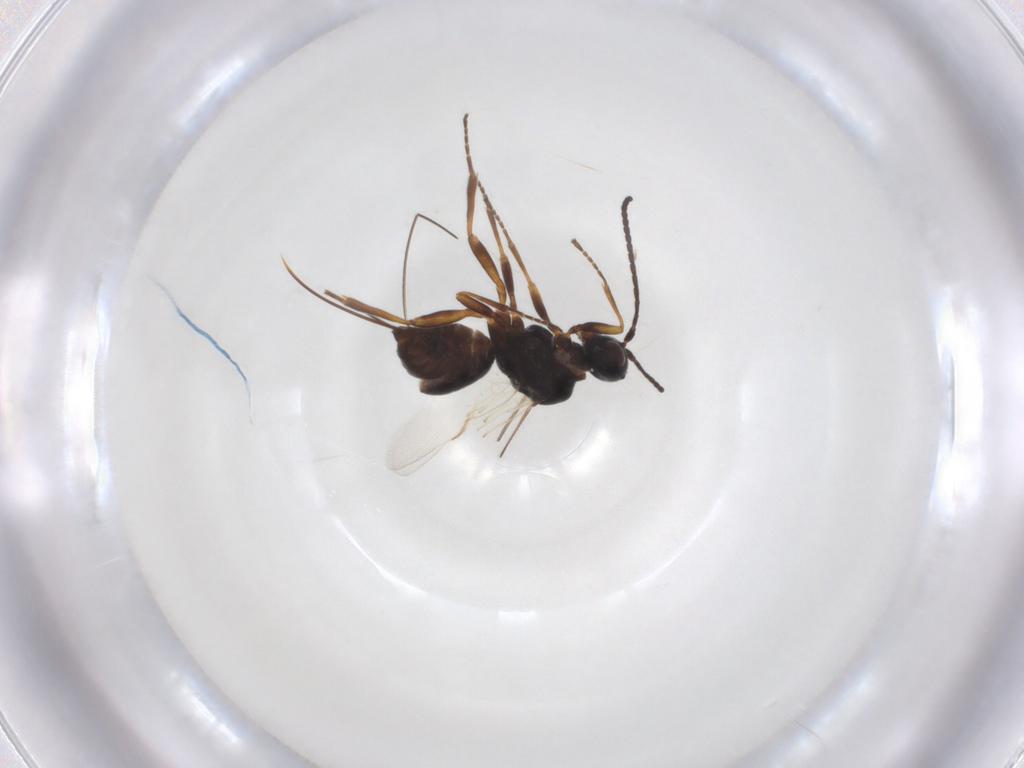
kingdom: Animalia
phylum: Arthropoda
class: Insecta
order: Hymenoptera
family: Braconidae
